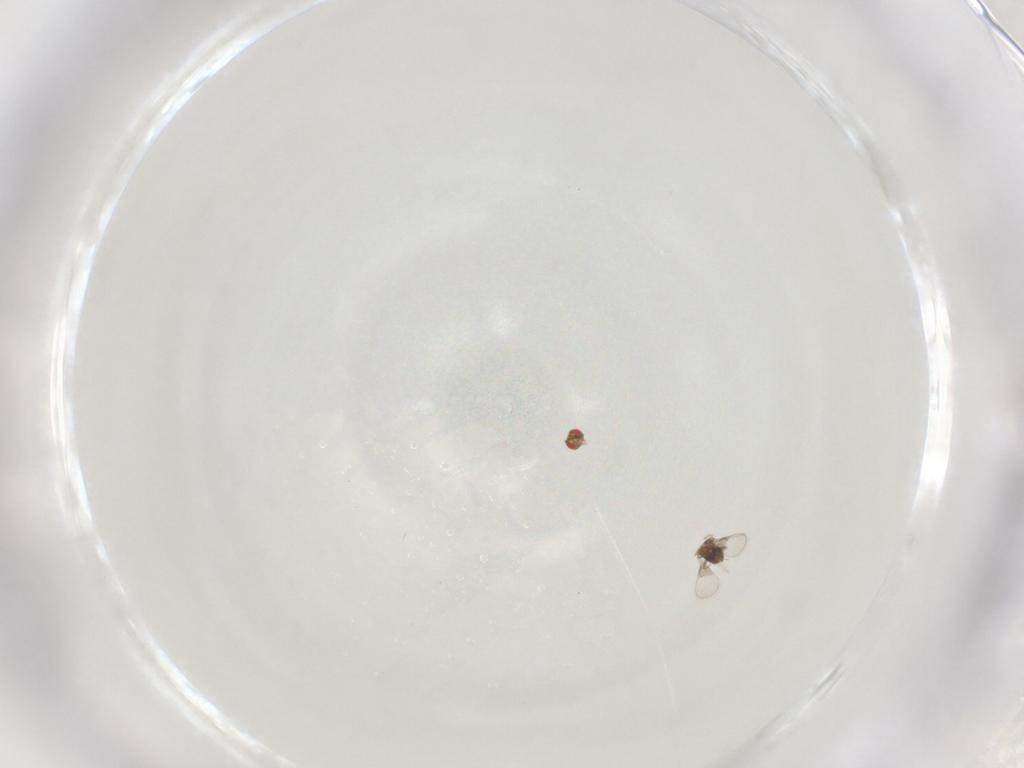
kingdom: Animalia
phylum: Arthropoda
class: Insecta
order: Hymenoptera
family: Trichogrammatidae
